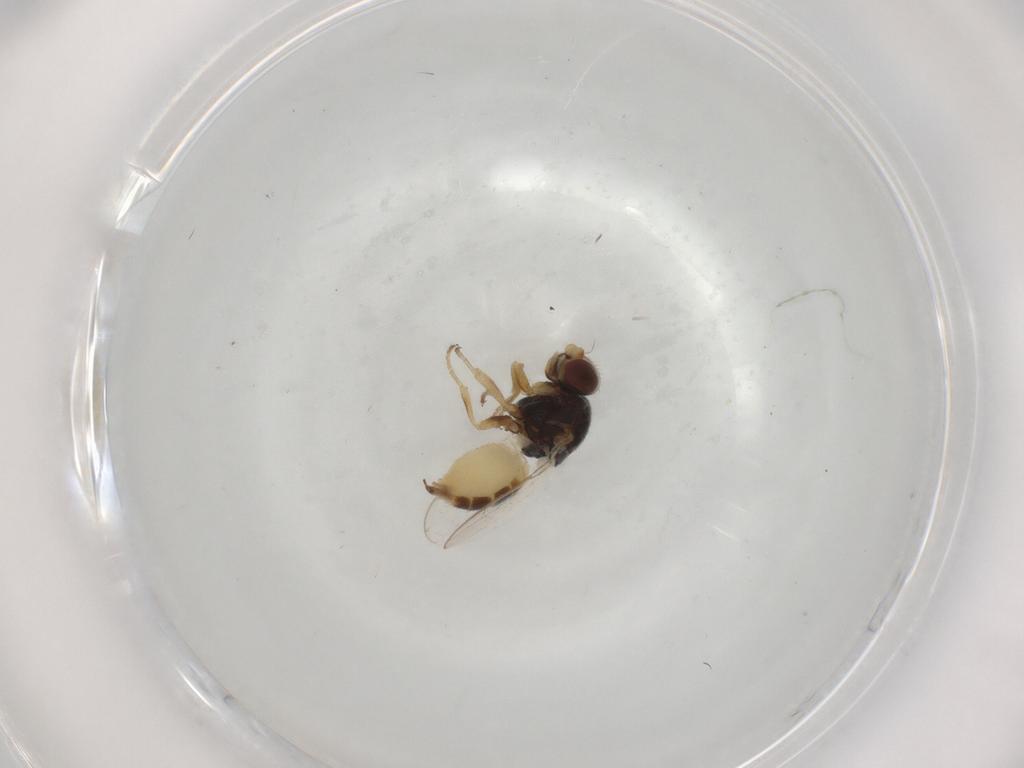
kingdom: Animalia
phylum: Arthropoda
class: Insecta
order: Diptera
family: Chloropidae
